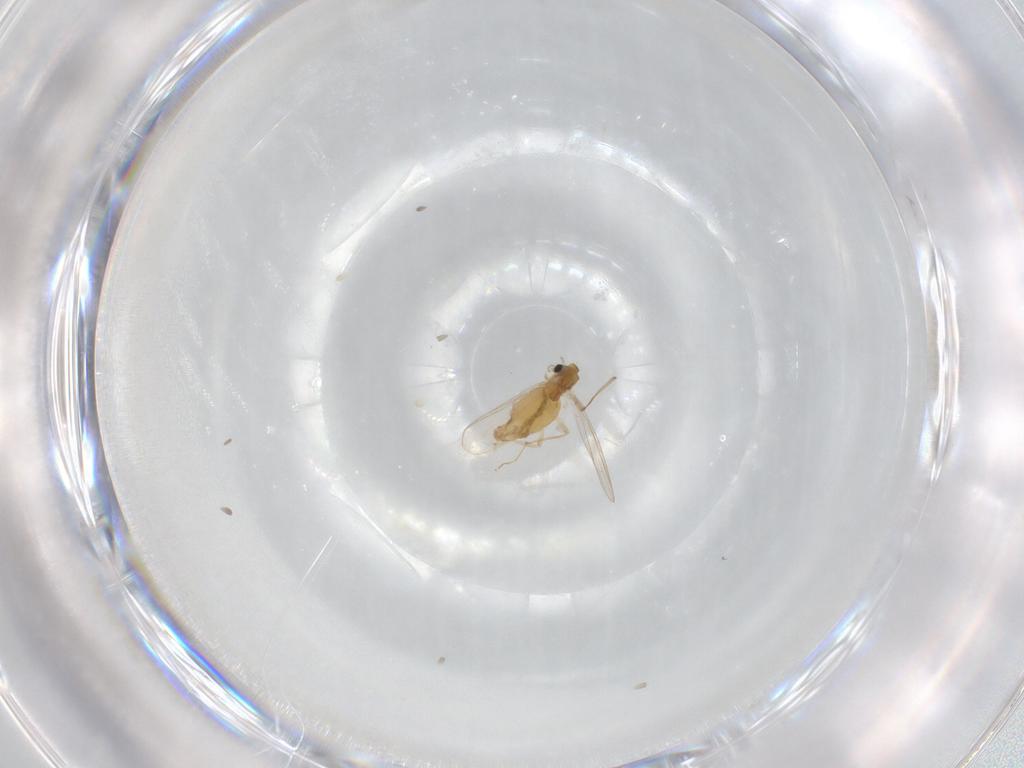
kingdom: Animalia
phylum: Arthropoda
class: Insecta
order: Diptera
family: Chironomidae
